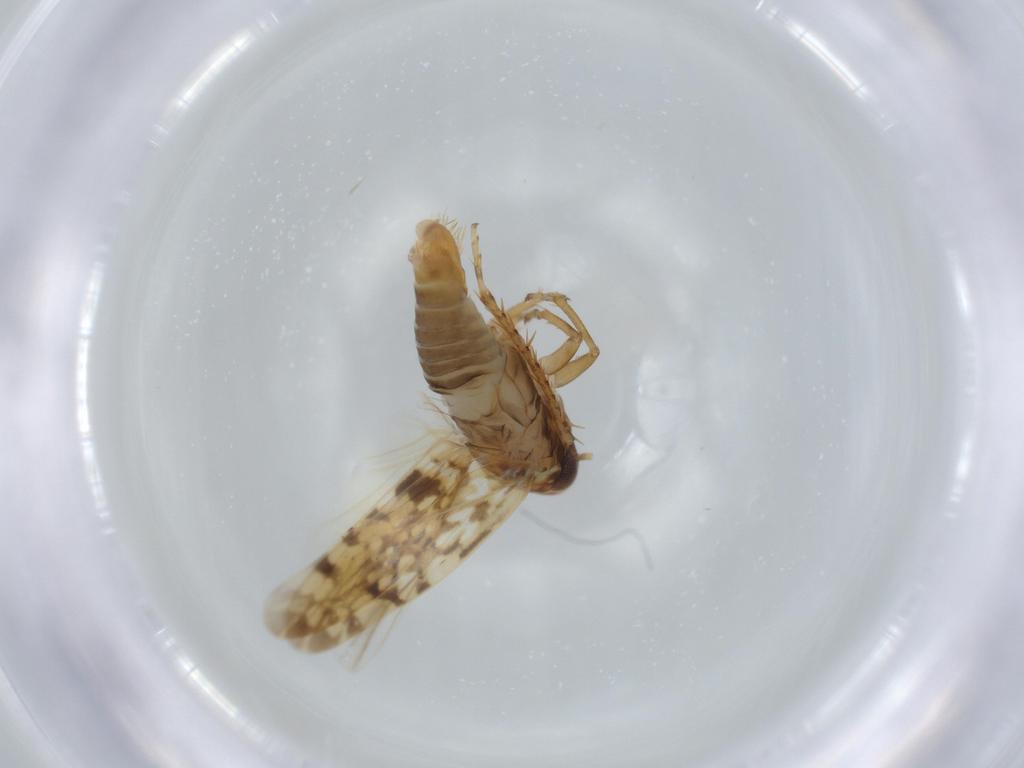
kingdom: Animalia
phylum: Arthropoda
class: Insecta
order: Hemiptera
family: Cicadellidae
